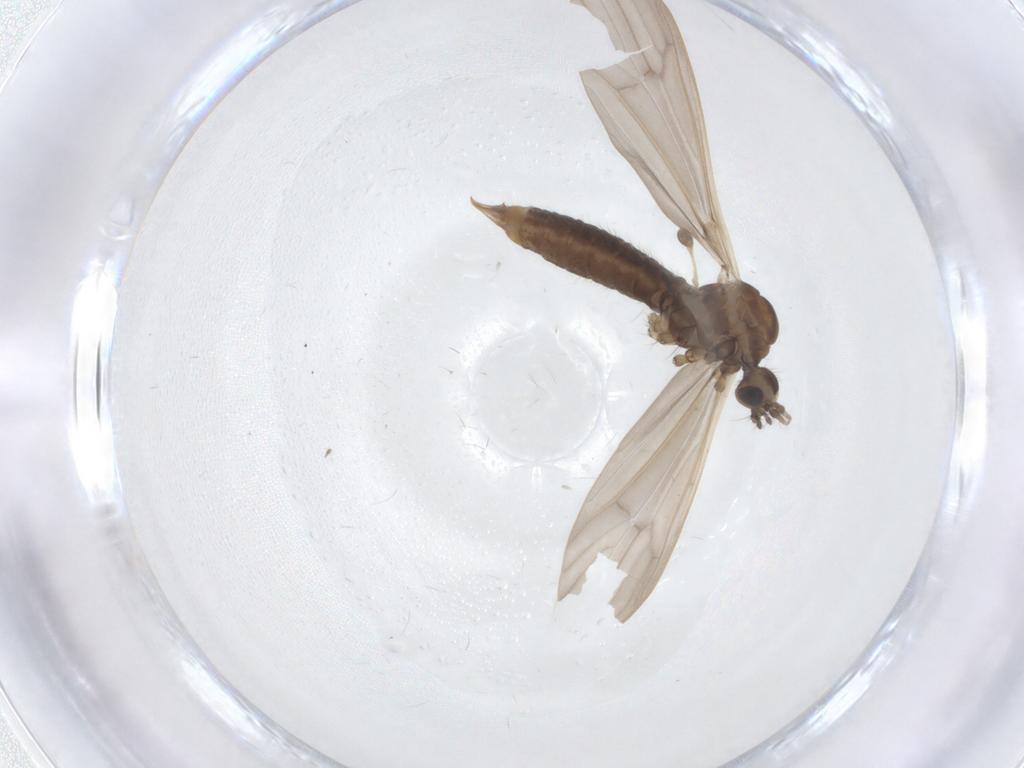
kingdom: Animalia
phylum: Arthropoda
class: Insecta
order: Diptera
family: Limoniidae
